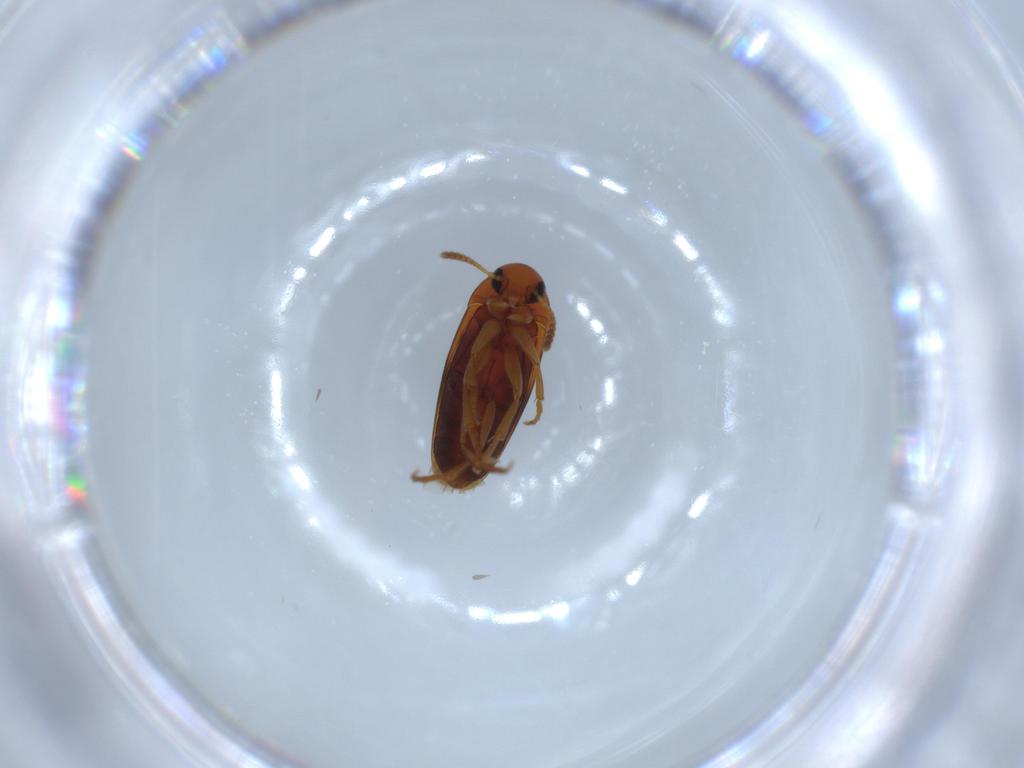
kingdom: Animalia
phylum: Arthropoda
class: Insecta
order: Coleoptera
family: Scraptiidae
